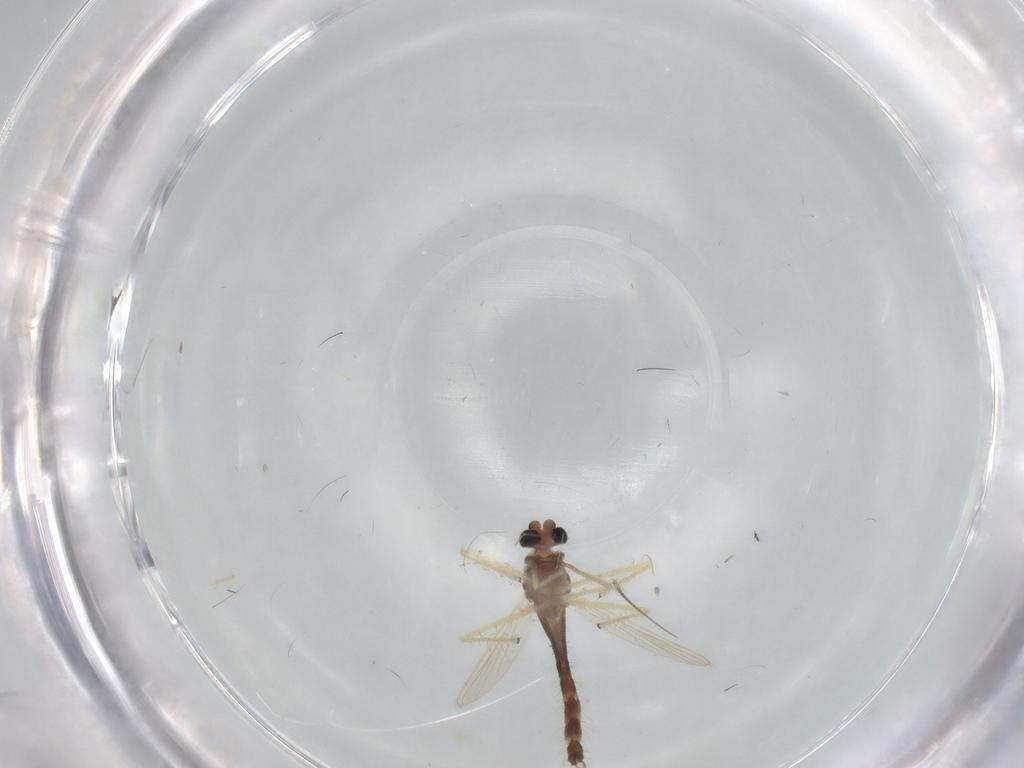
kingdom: Animalia
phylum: Arthropoda
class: Insecta
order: Diptera
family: Chironomidae
